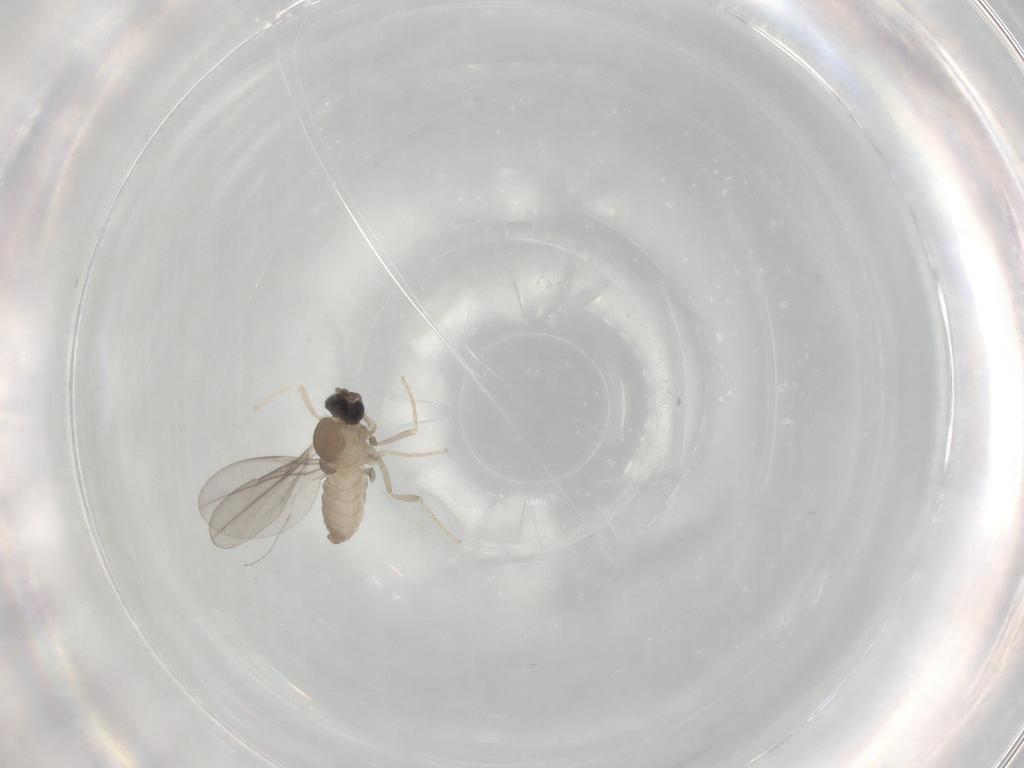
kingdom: Animalia
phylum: Arthropoda
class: Insecta
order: Diptera
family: Cecidomyiidae
